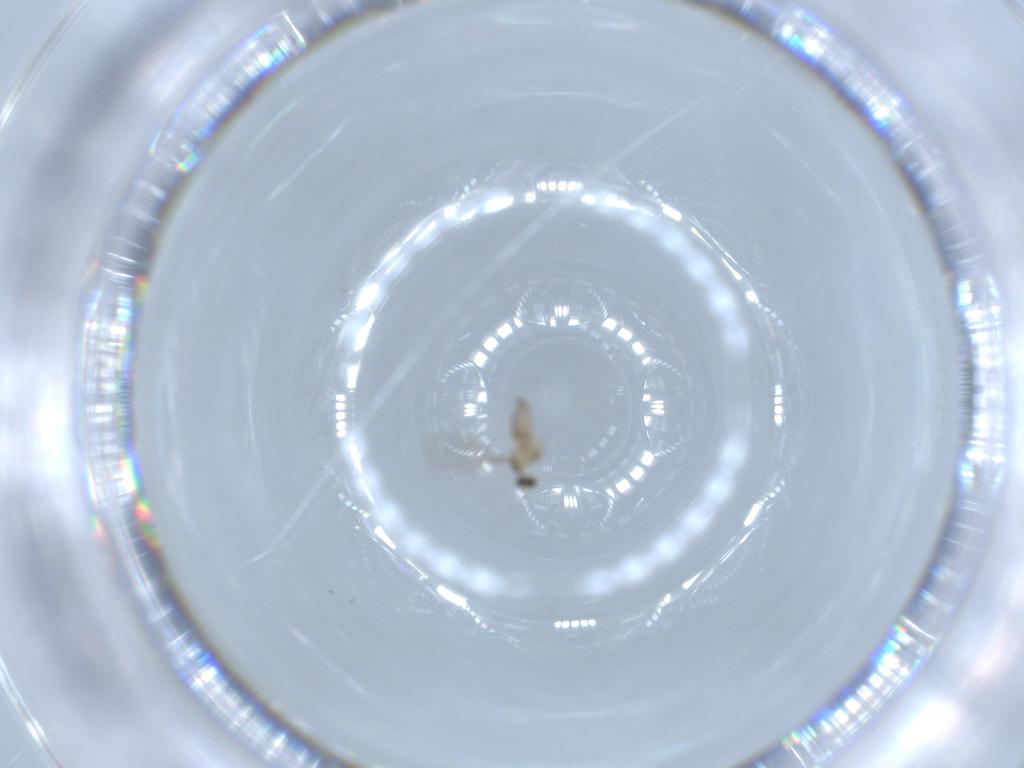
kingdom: Animalia
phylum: Arthropoda
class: Insecta
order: Diptera
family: Cecidomyiidae
